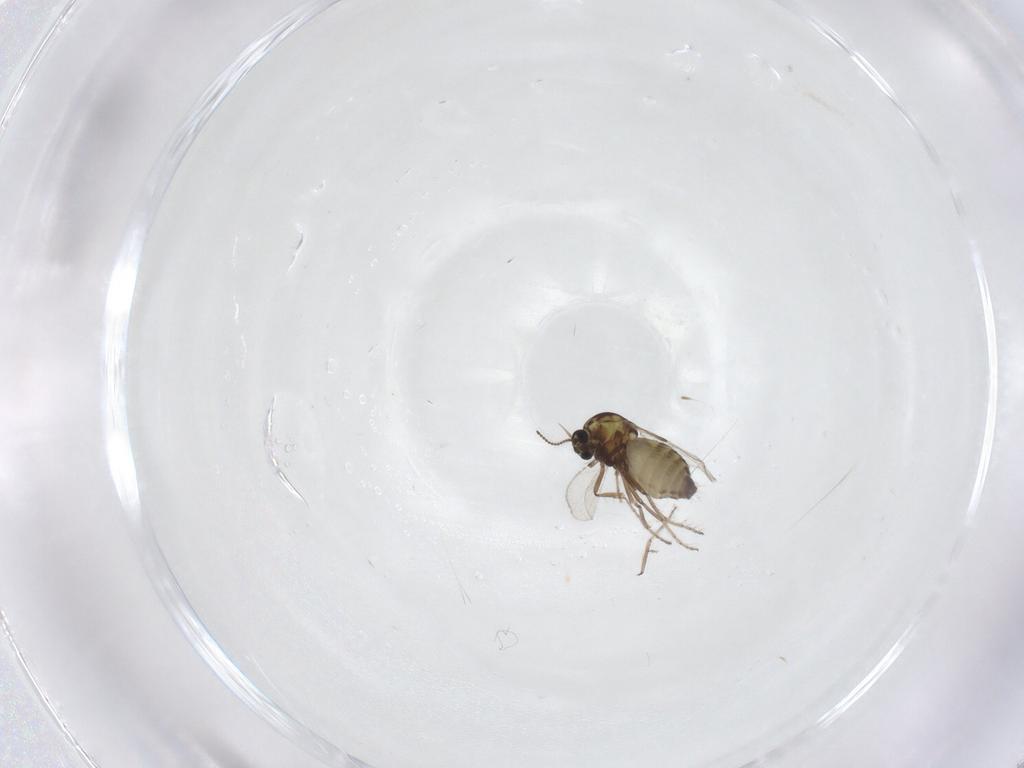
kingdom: Animalia
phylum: Arthropoda
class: Insecta
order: Diptera
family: Ceratopogonidae
